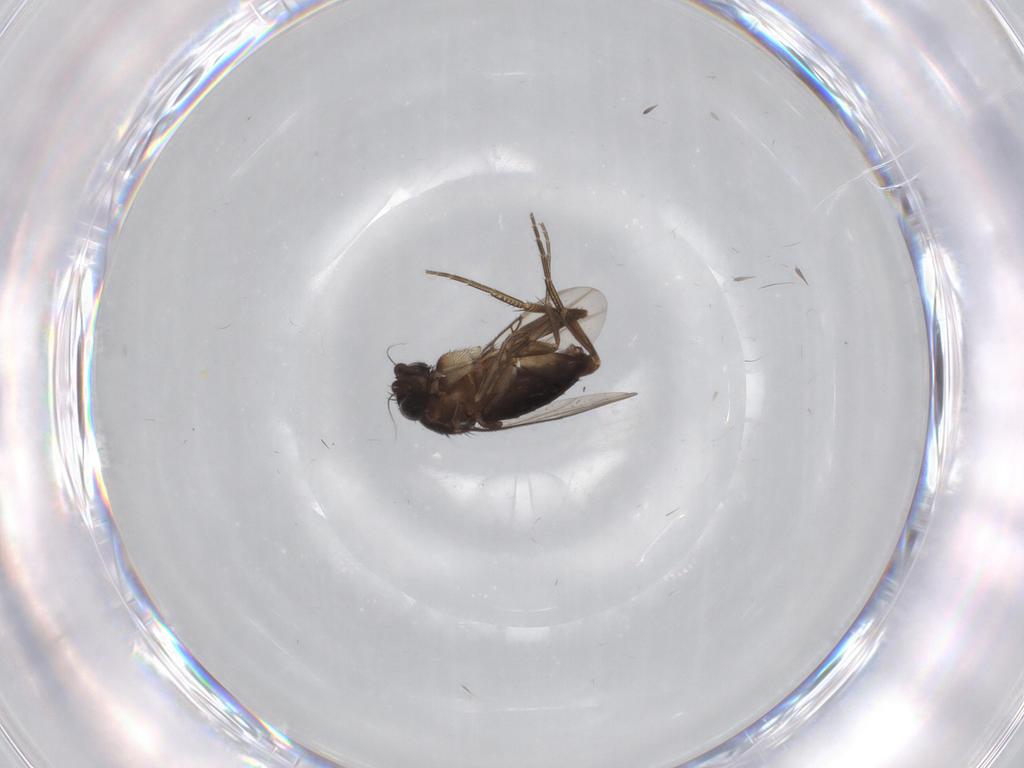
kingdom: Animalia
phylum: Arthropoda
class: Insecta
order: Diptera
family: Phoridae
